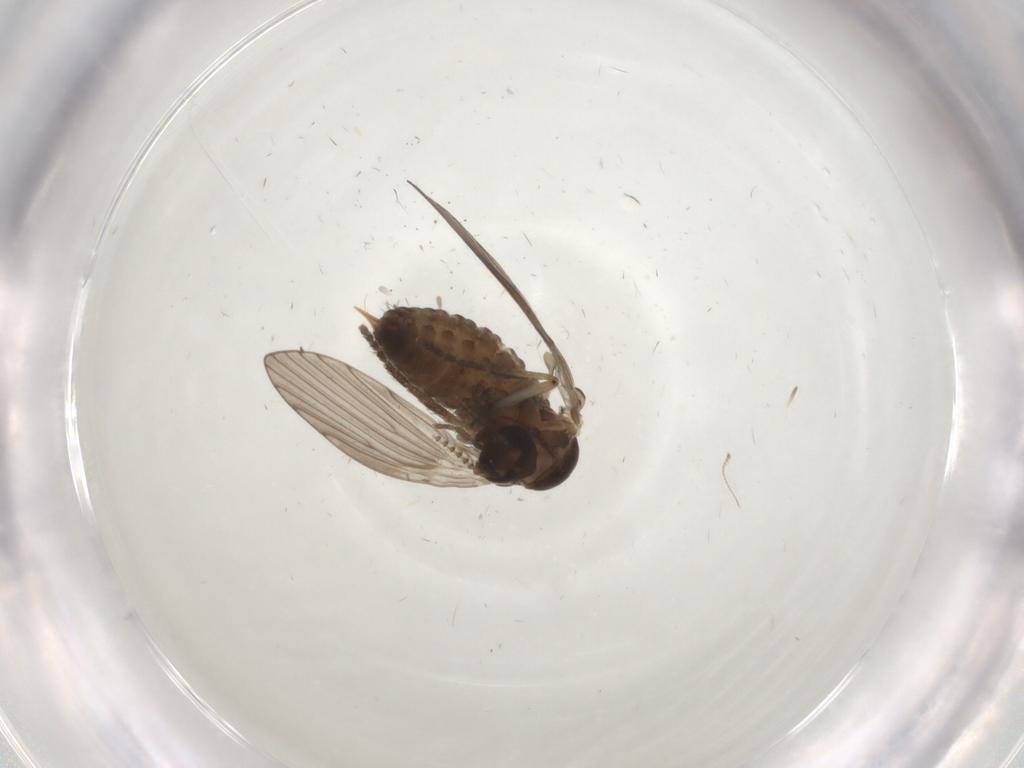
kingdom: Animalia
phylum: Arthropoda
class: Insecta
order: Diptera
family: Psychodidae
